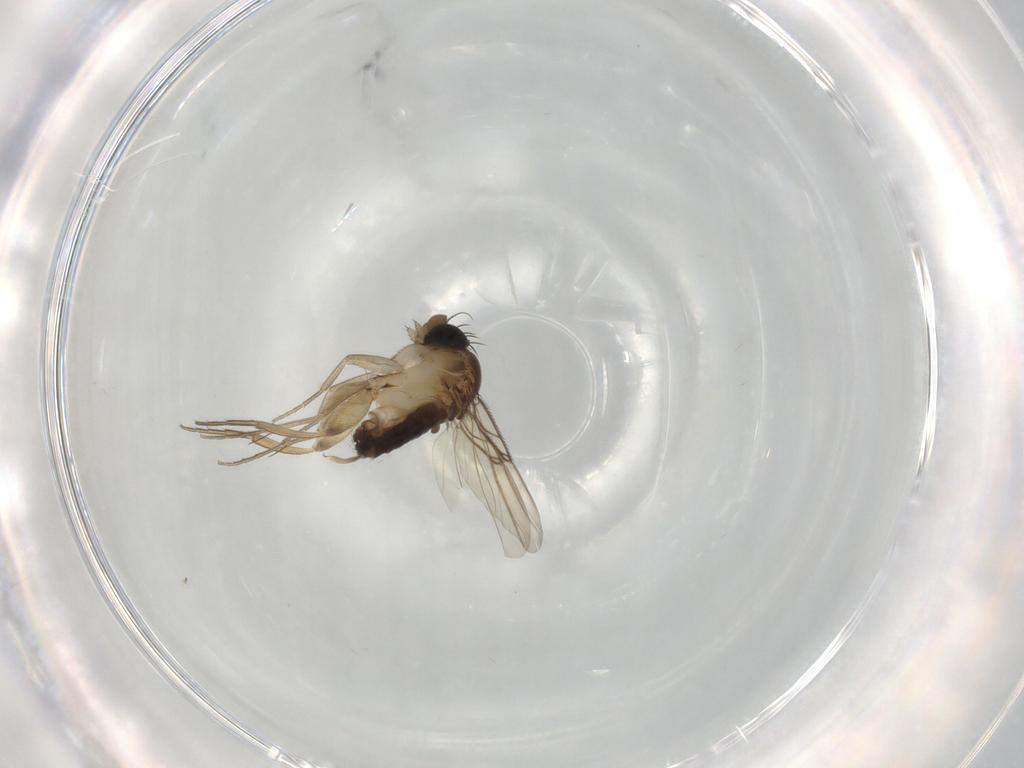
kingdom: Animalia
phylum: Arthropoda
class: Insecta
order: Diptera
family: Phoridae
